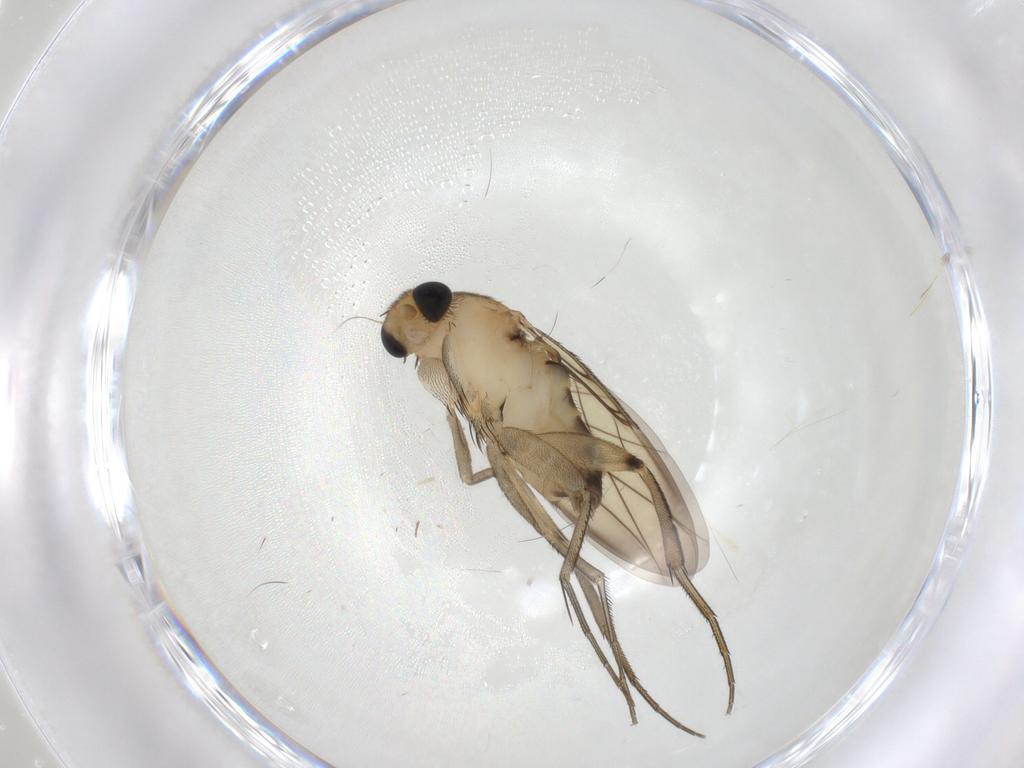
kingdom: Animalia
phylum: Arthropoda
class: Insecta
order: Diptera
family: Phoridae
